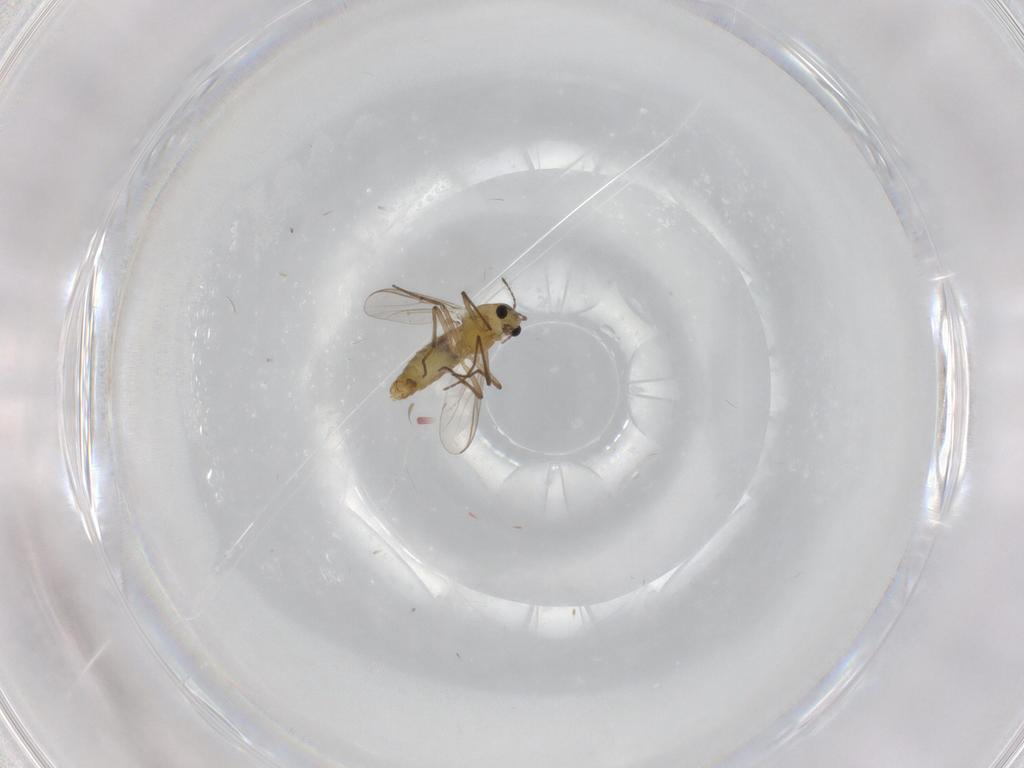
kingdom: Animalia
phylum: Arthropoda
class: Insecta
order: Diptera
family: Chironomidae
